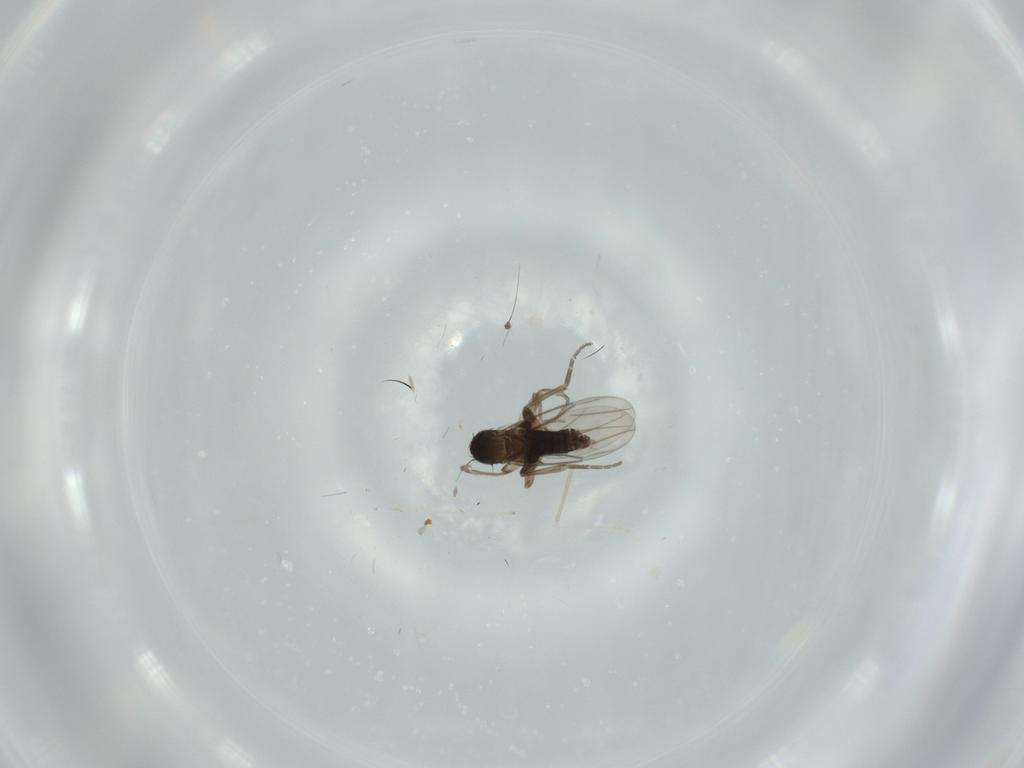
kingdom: Animalia
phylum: Arthropoda
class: Insecta
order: Diptera
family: Phoridae
